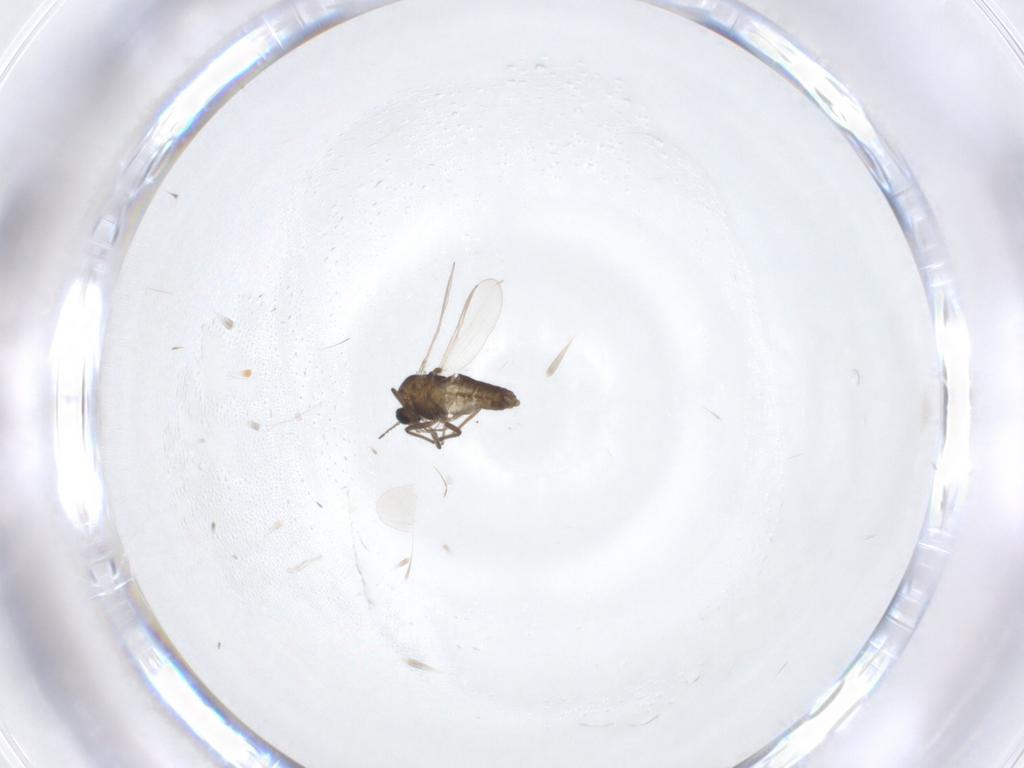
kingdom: Animalia
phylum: Arthropoda
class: Insecta
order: Diptera
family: Cecidomyiidae
